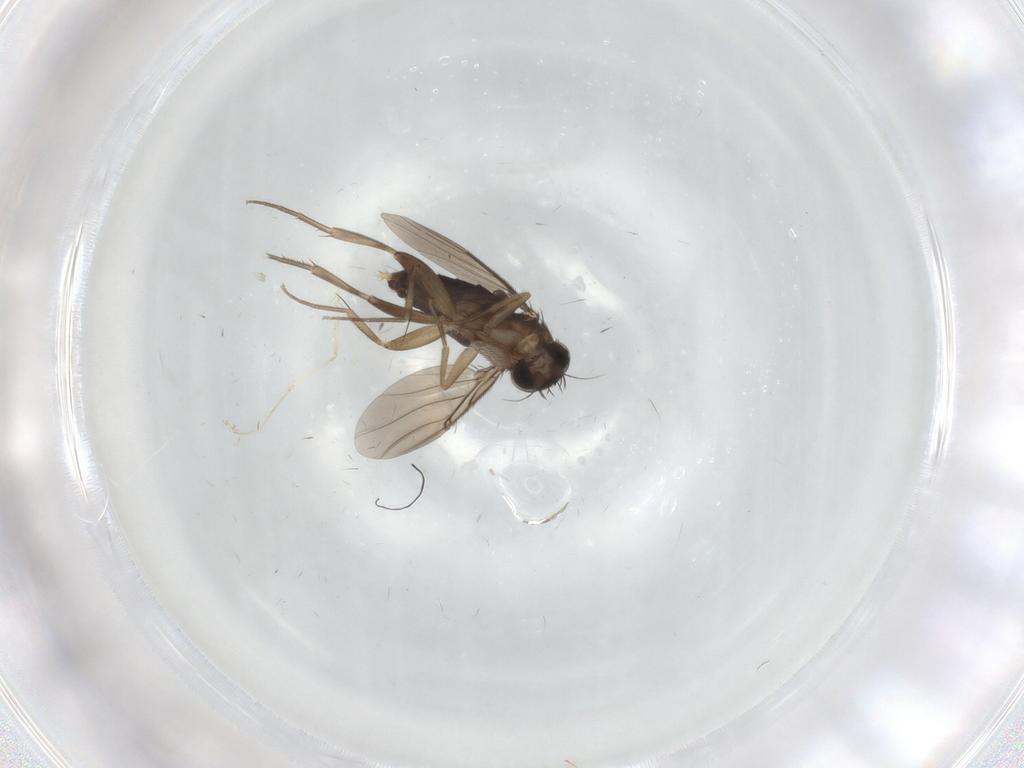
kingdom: Animalia
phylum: Arthropoda
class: Insecta
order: Diptera
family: Phoridae
